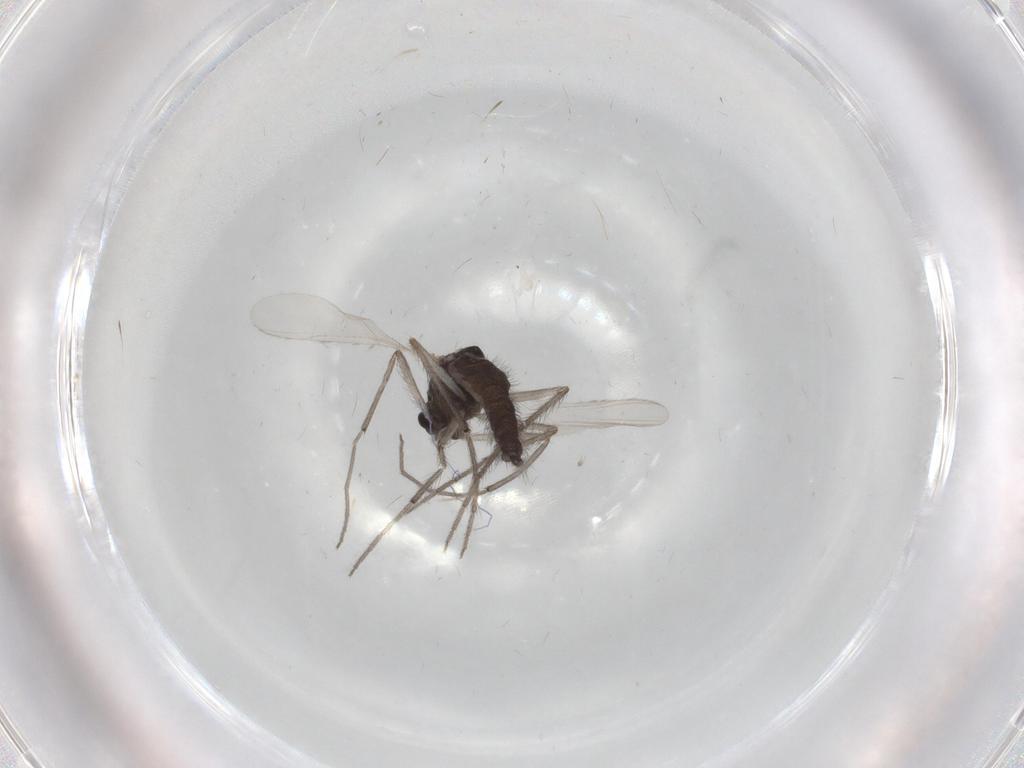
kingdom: Animalia
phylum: Arthropoda
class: Insecta
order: Diptera
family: Chironomidae
